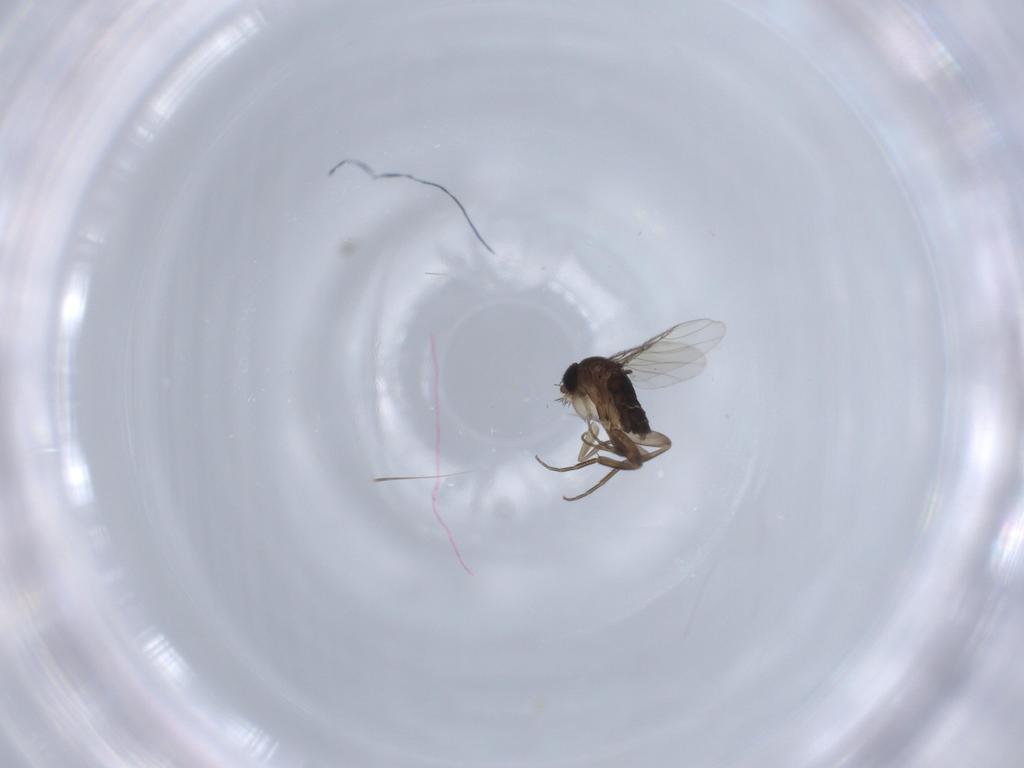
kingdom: Animalia
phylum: Arthropoda
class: Insecta
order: Diptera
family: Phoridae
